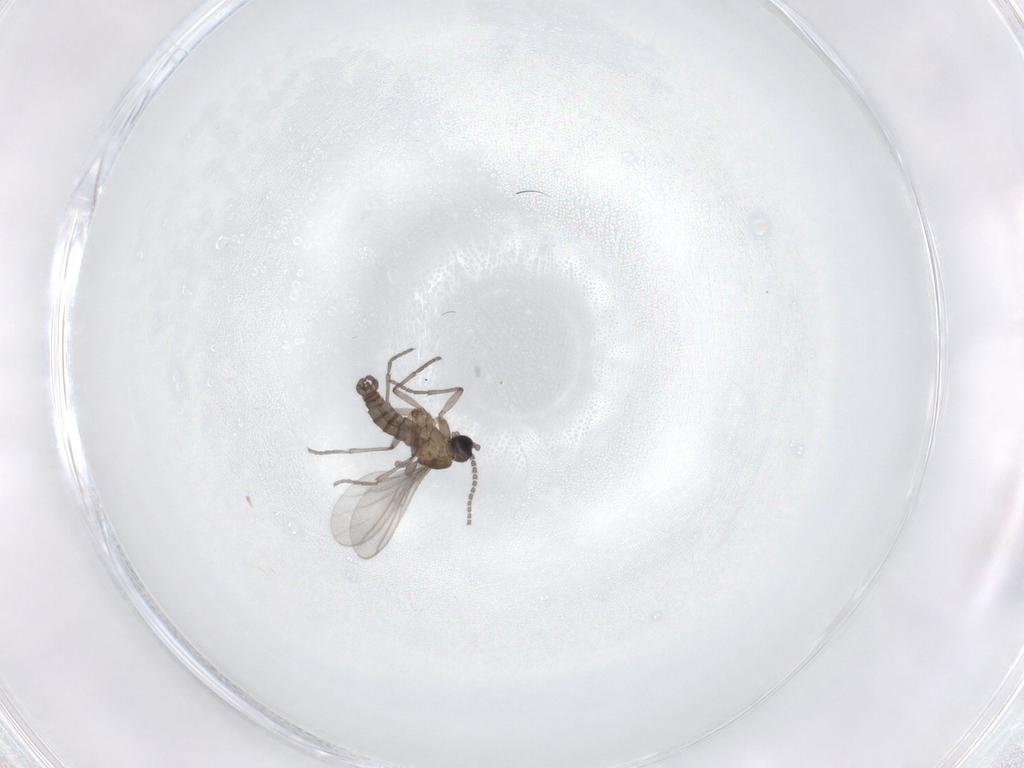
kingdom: Animalia
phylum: Arthropoda
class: Insecta
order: Diptera
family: Sciaridae
